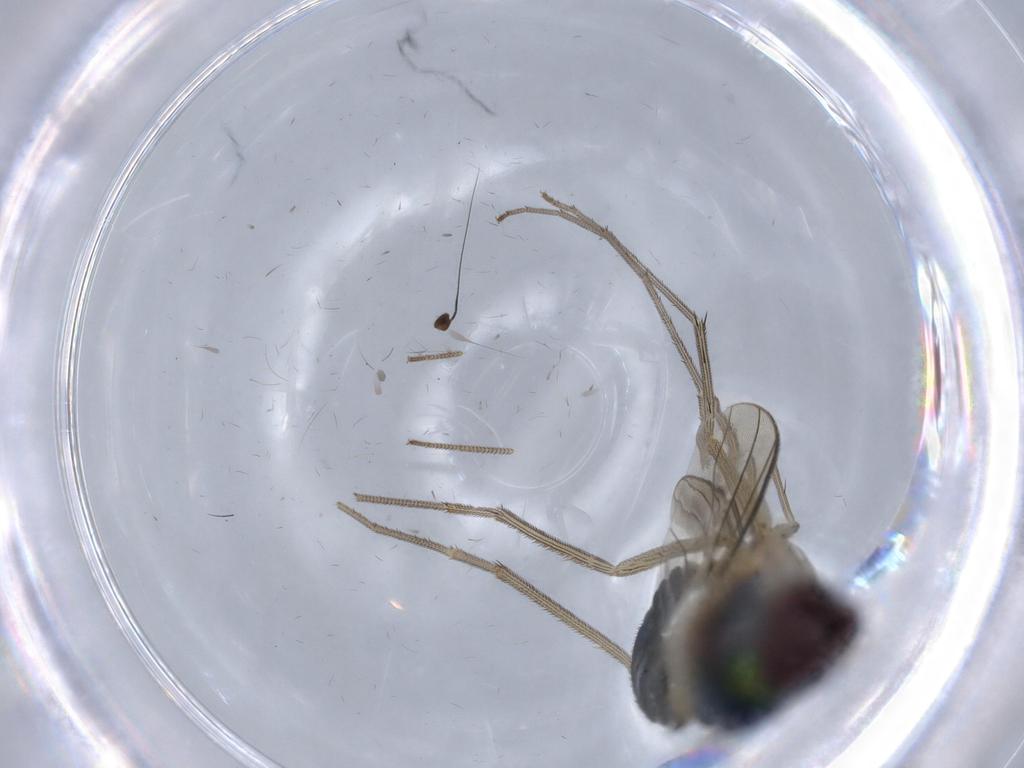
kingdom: Animalia
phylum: Arthropoda
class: Insecta
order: Diptera
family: Dolichopodidae
